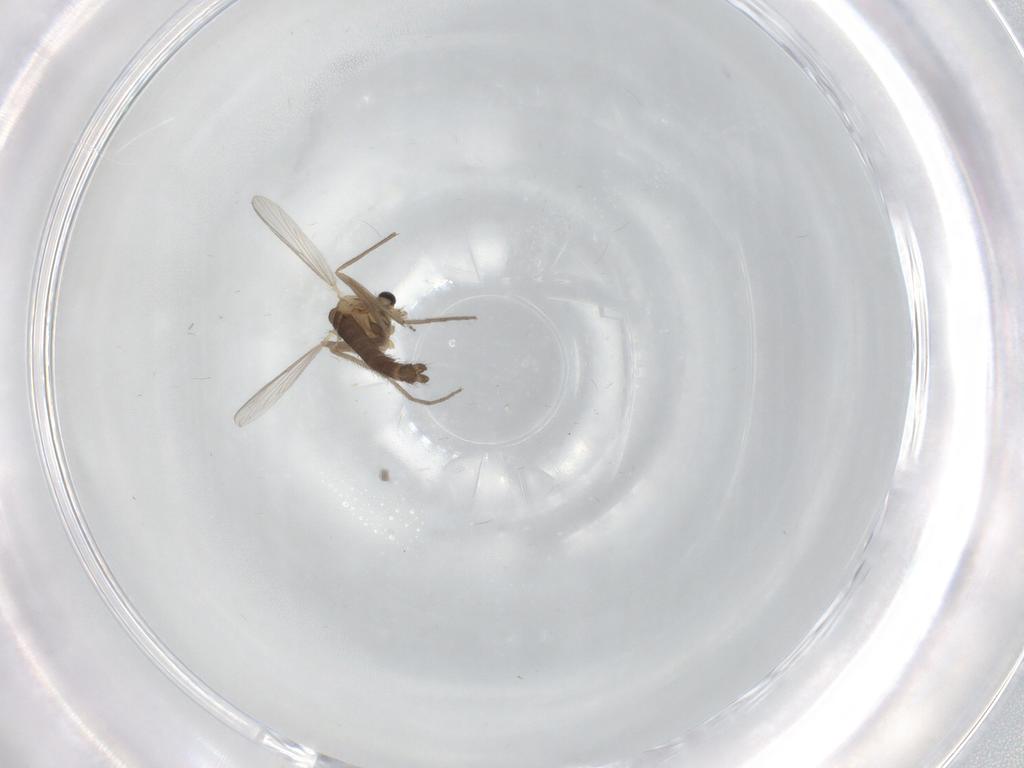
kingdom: Animalia
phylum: Arthropoda
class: Insecta
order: Diptera
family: Chironomidae
